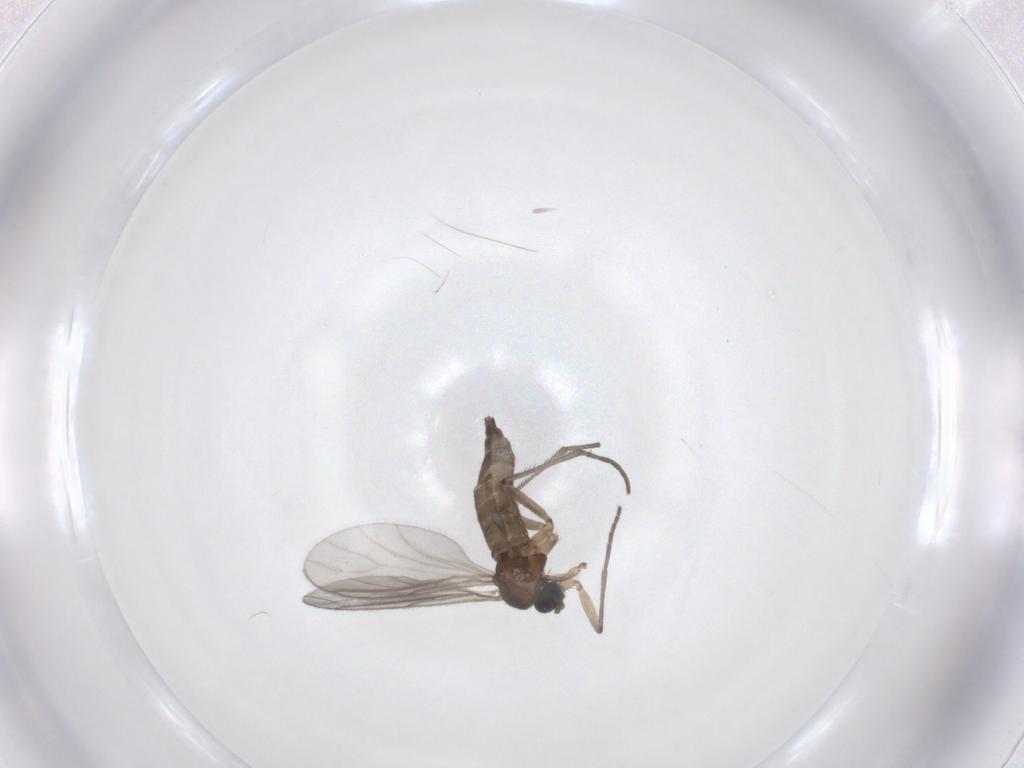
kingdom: Animalia
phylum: Arthropoda
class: Insecta
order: Diptera
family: Sciaridae
